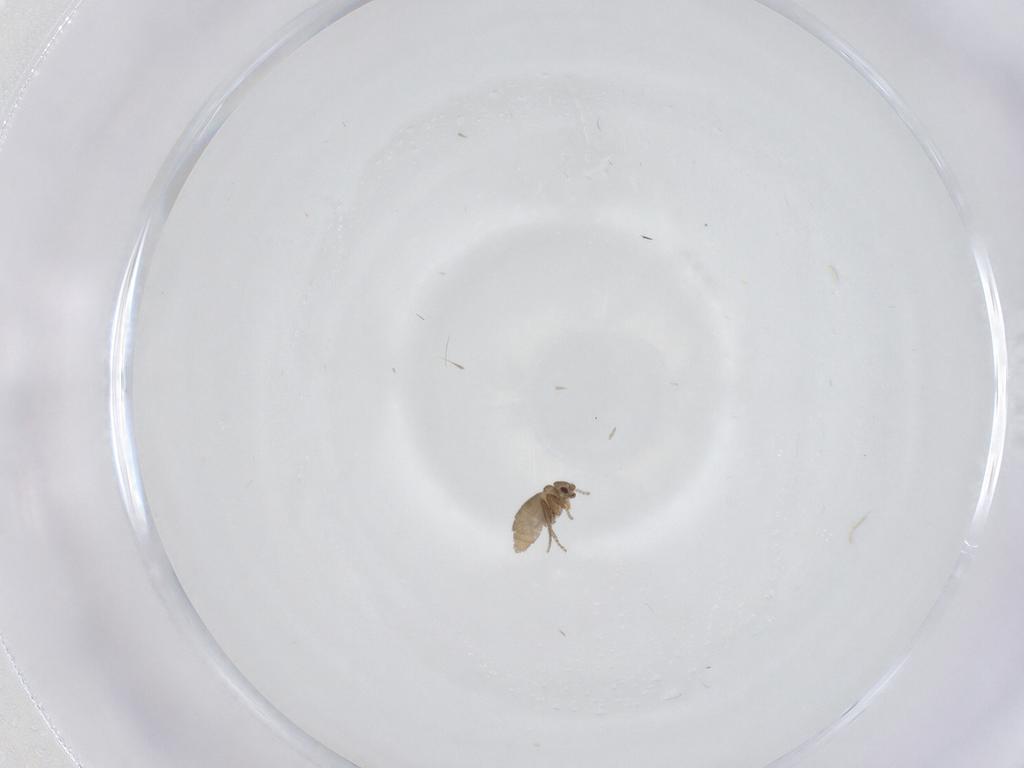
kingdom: Animalia
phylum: Arthropoda
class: Insecta
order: Diptera
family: Psychodidae
